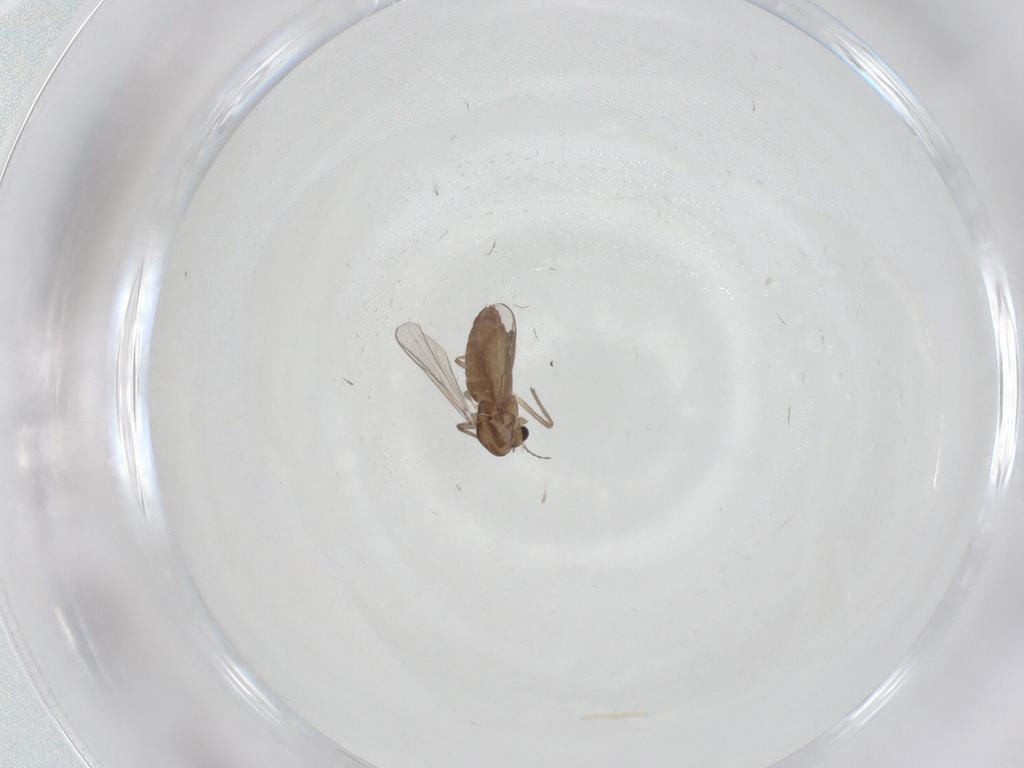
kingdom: Animalia
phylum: Arthropoda
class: Insecta
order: Diptera
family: Chironomidae
